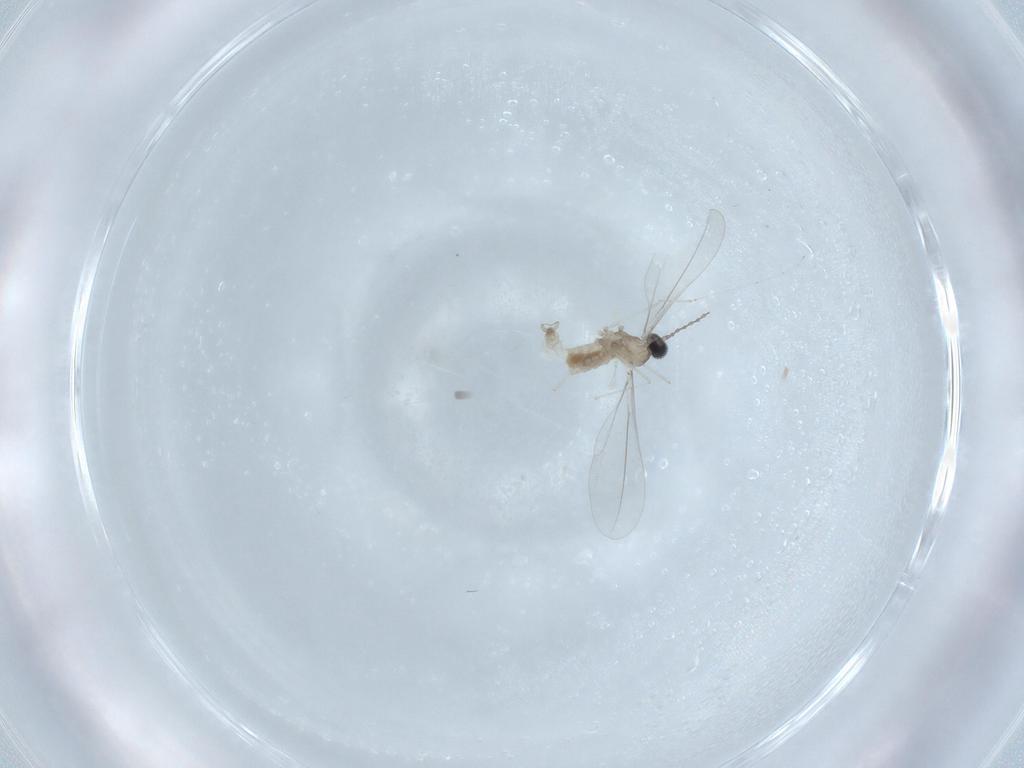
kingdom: Animalia
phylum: Arthropoda
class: Insecta
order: Diptera
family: Cecidomyiidae
